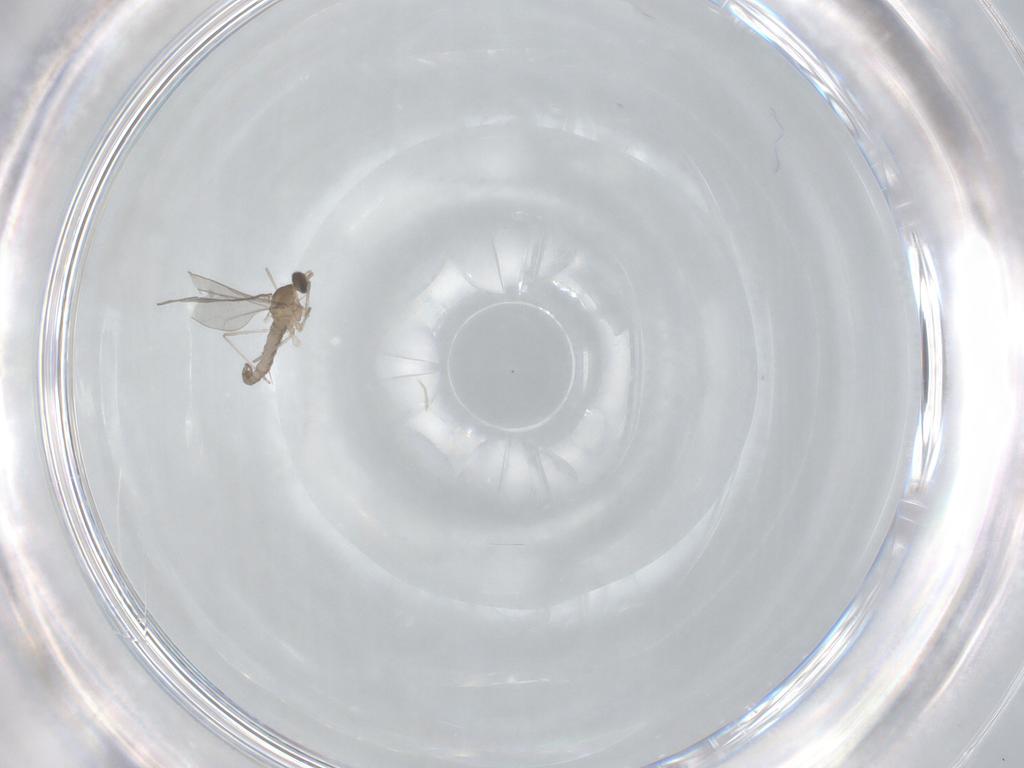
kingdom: Animalia
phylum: Arthropoda
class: Insecta
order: Diptera
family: Cecidomyiidae
